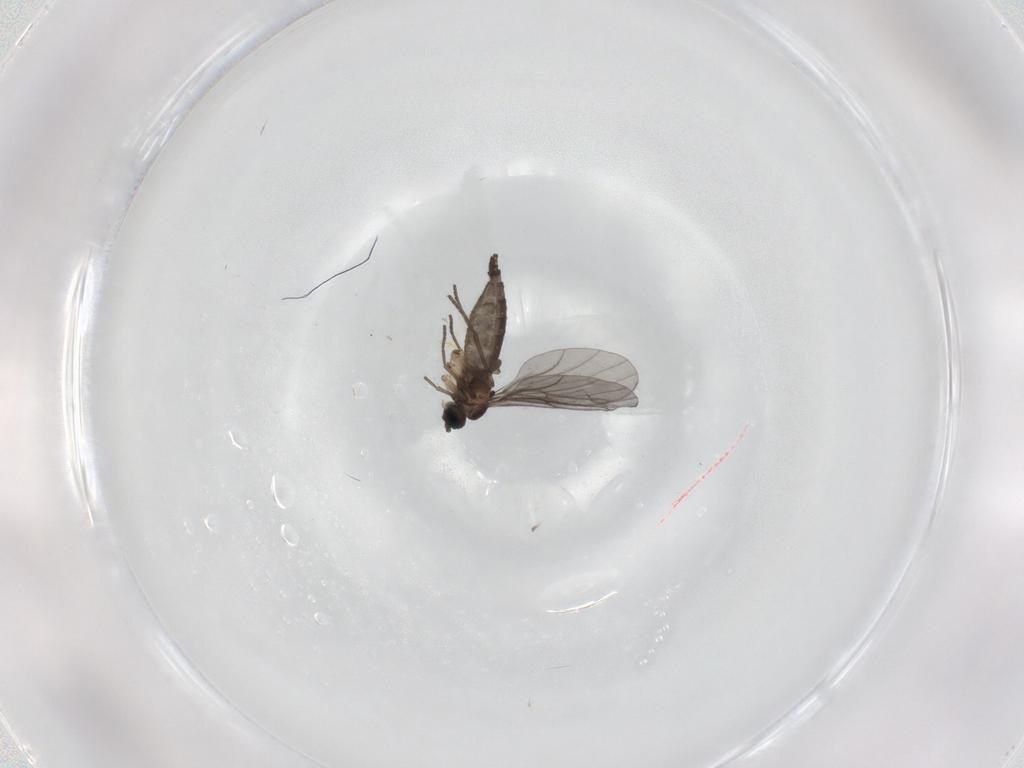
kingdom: Animalia
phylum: Arthropoda
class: Insecta
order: Diptera
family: Sciaridae
